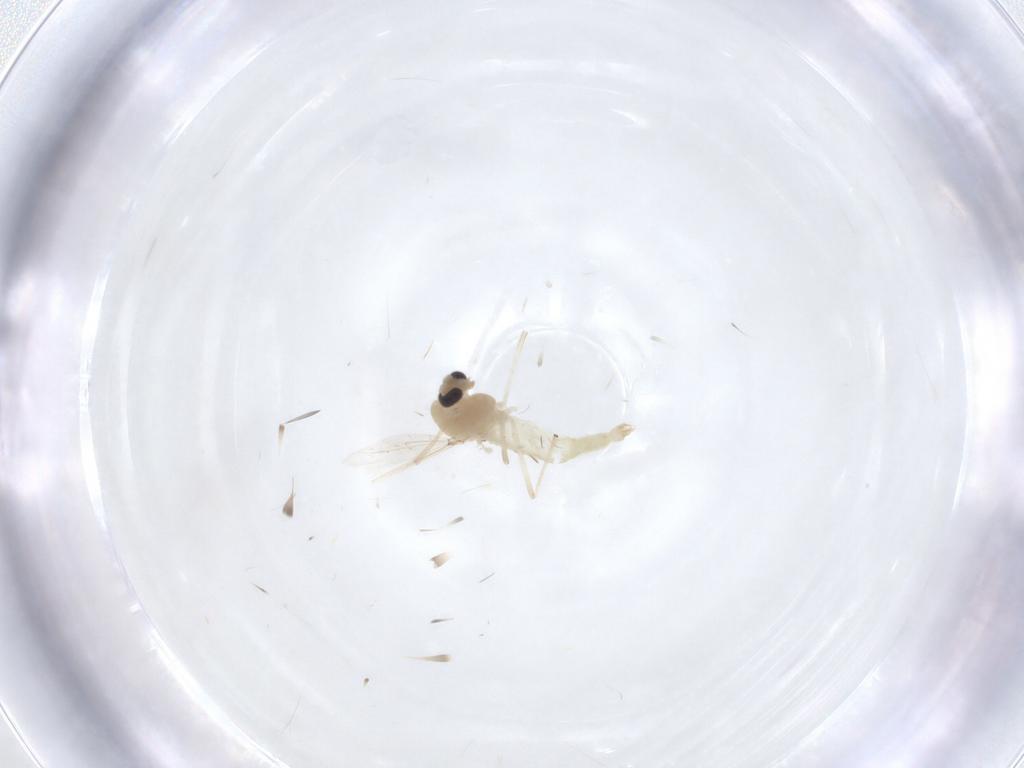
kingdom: Animalia
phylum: Arthropoda
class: Insecta
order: Diptera
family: Chironomidae
